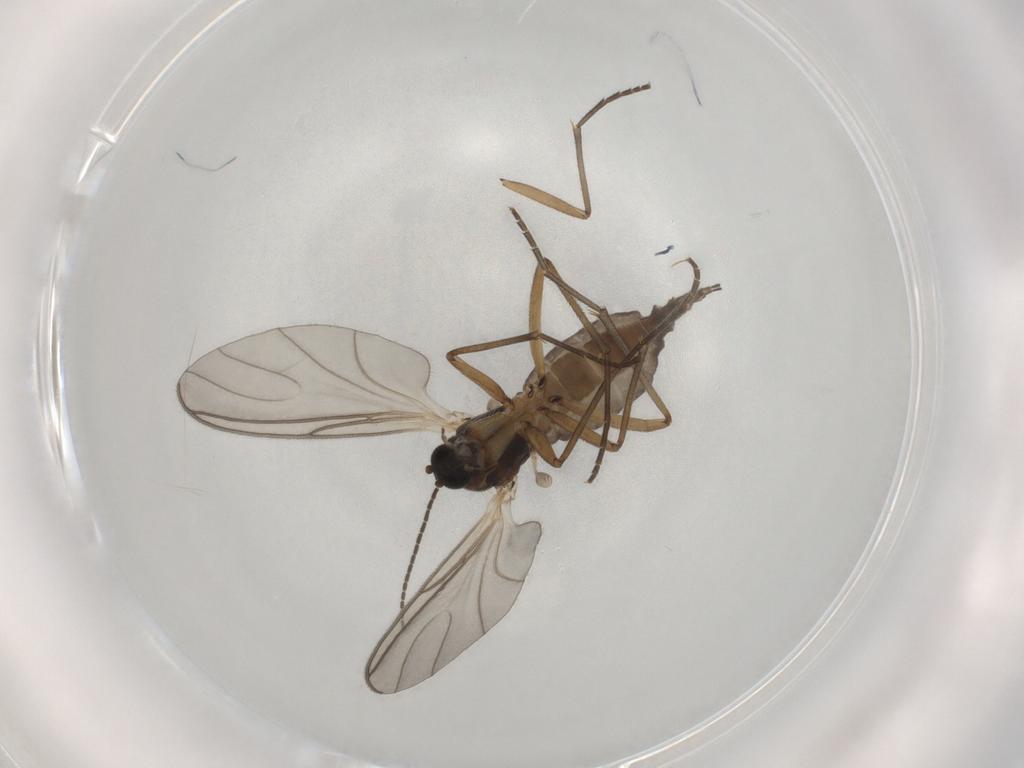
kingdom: Animalia
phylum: Arthropoda
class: Insecta
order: Diptera
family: Sciaridae
